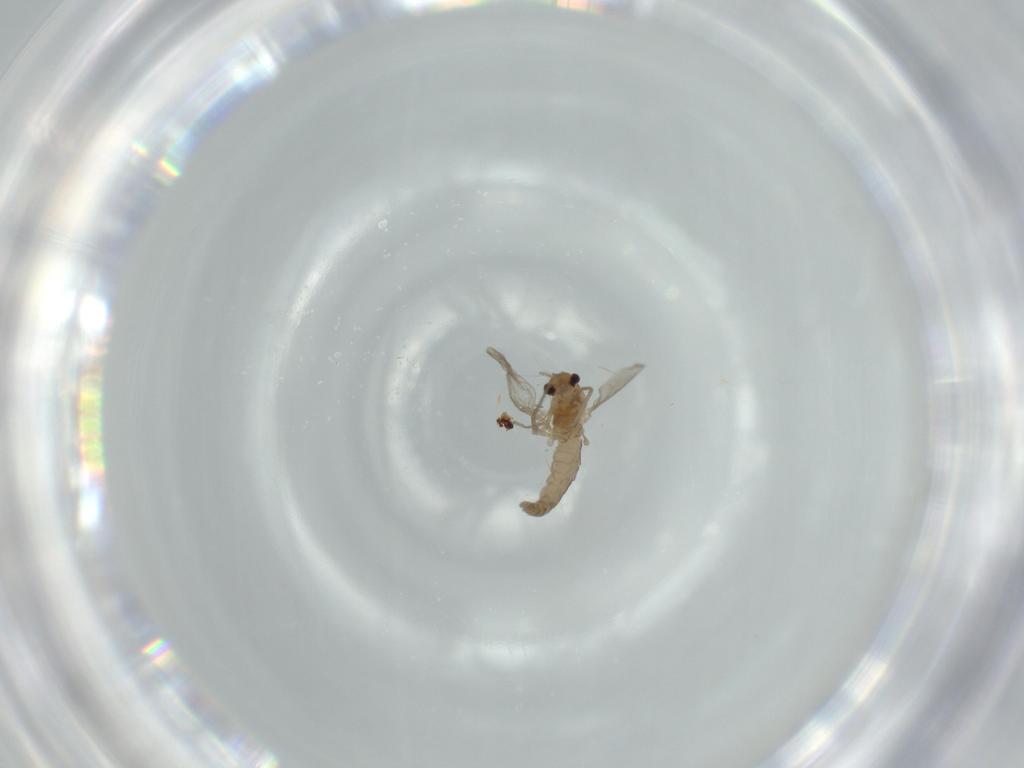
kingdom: Animalia
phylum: Arthropoda
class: Insecta
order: Diptera
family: Chironomidae
